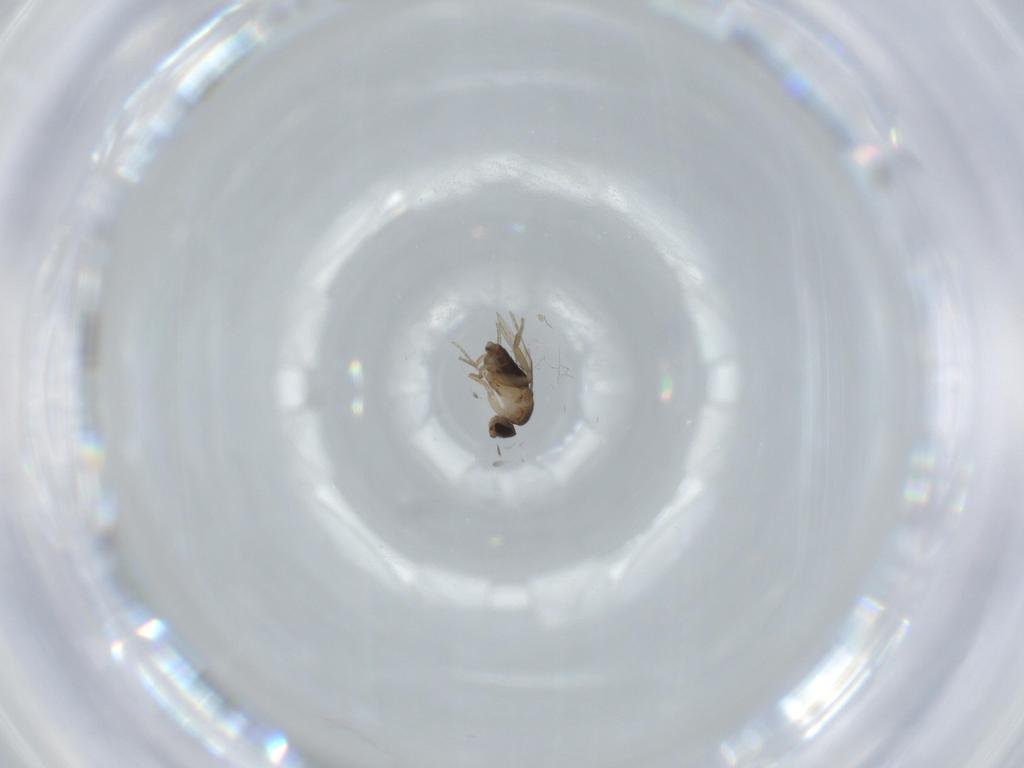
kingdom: Animalia
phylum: Arthropoda
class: Insecta
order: Diptera
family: Phoridae
